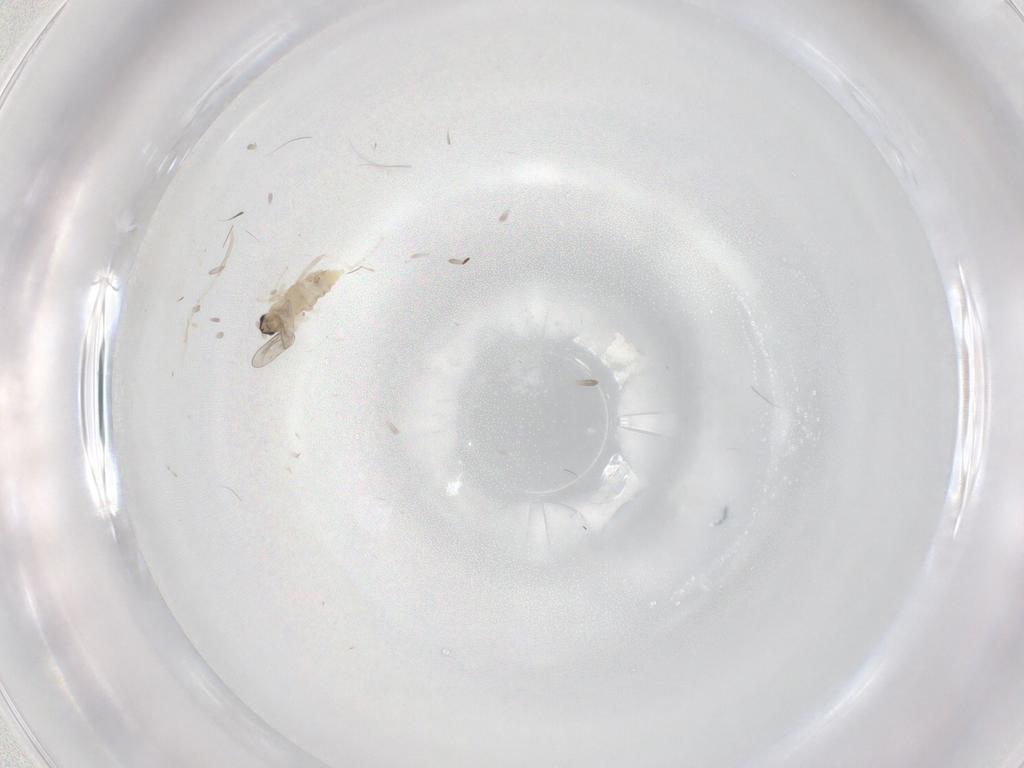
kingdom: Animalia
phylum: Arthropoda
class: Insecta
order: Diptera
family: Cecidomyiidae
